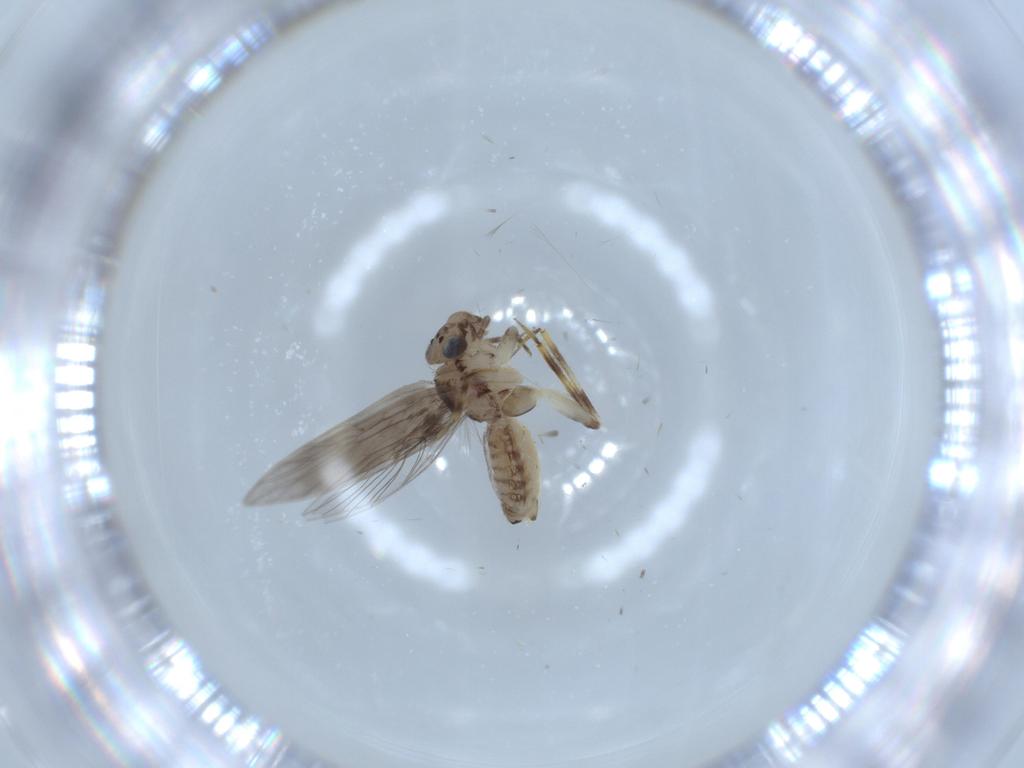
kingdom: Animalia
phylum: Arthropoda
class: Insecta
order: Psocodea
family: Lepidopsocidae
